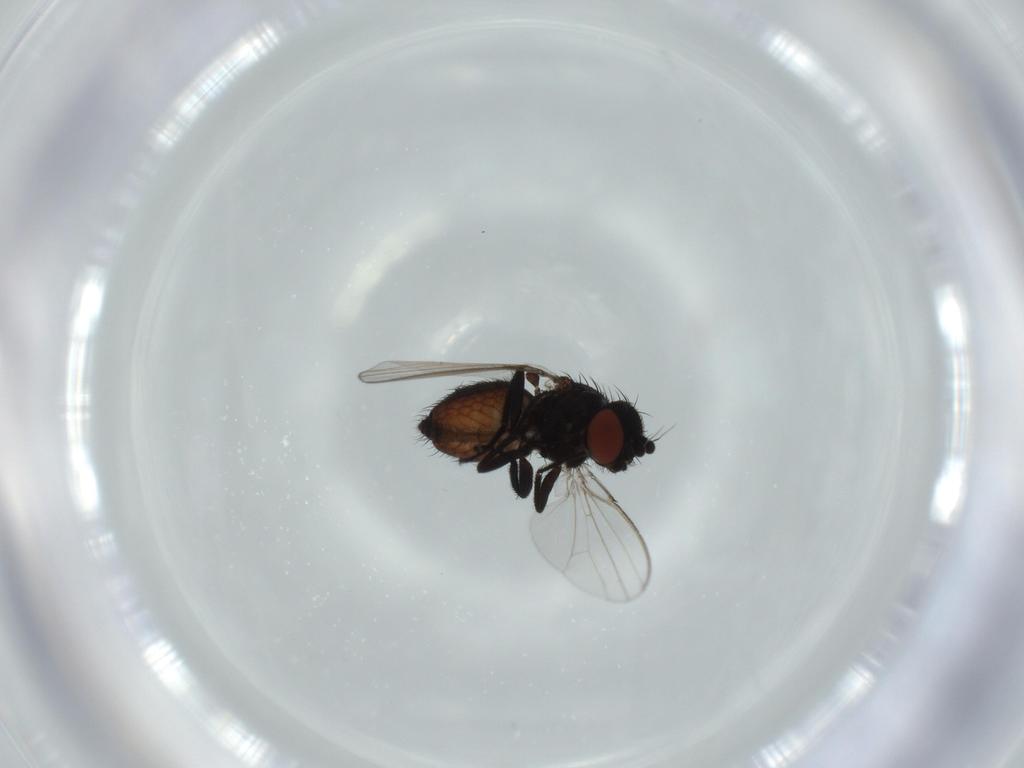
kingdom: Animalia
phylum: Arthropoda
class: Insecta
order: Diptera
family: Milichiidae
